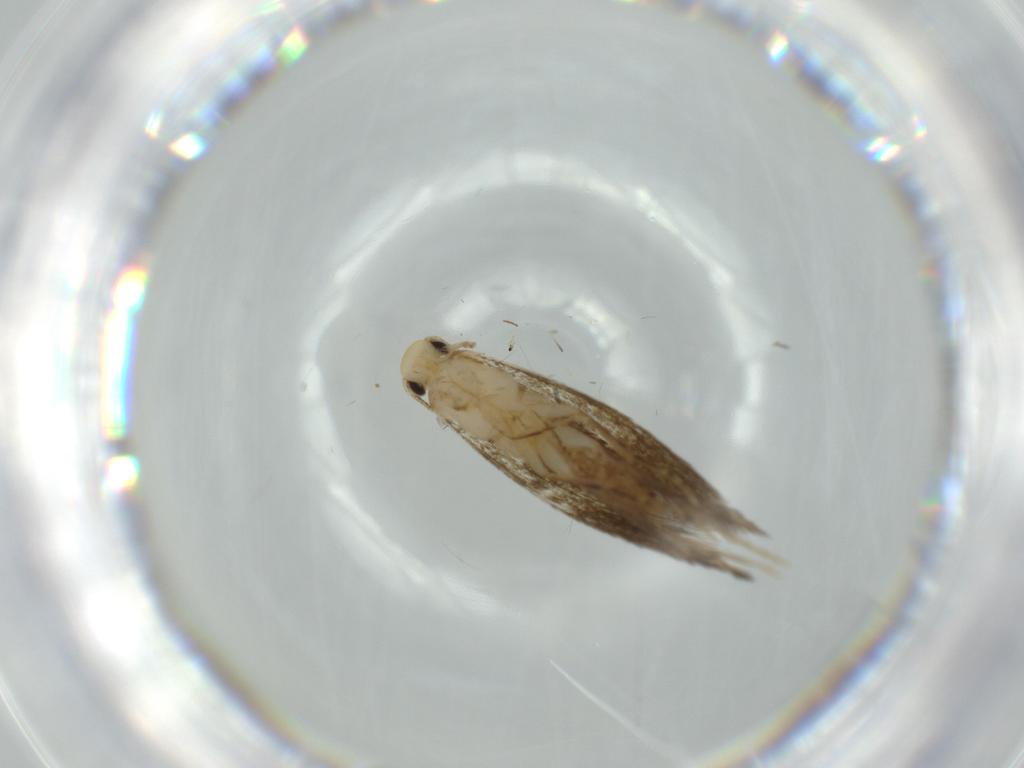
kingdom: Animalia
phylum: Arthropoda
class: Insecta
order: Lepidoptera
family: Tineidae
